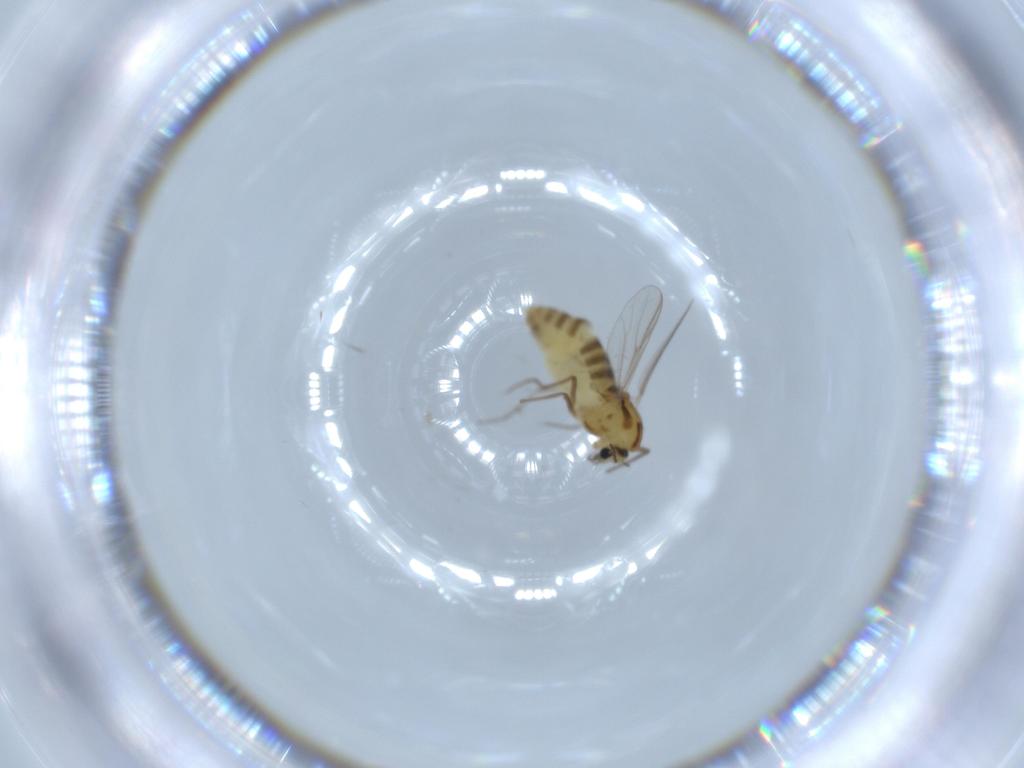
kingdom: Animalia
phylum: Arthropoda
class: Insecta
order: Diptera
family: Chironomidae
